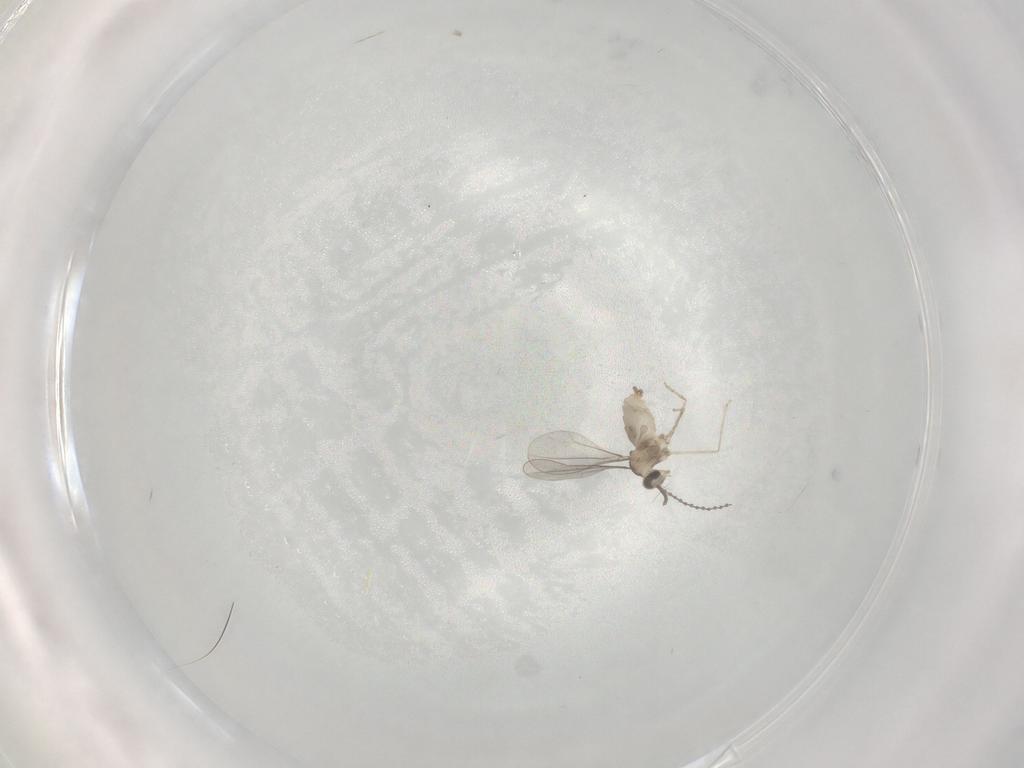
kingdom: Animalia
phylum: Arthropoda
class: Insecta
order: Diptera
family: Cecidomyiidae
